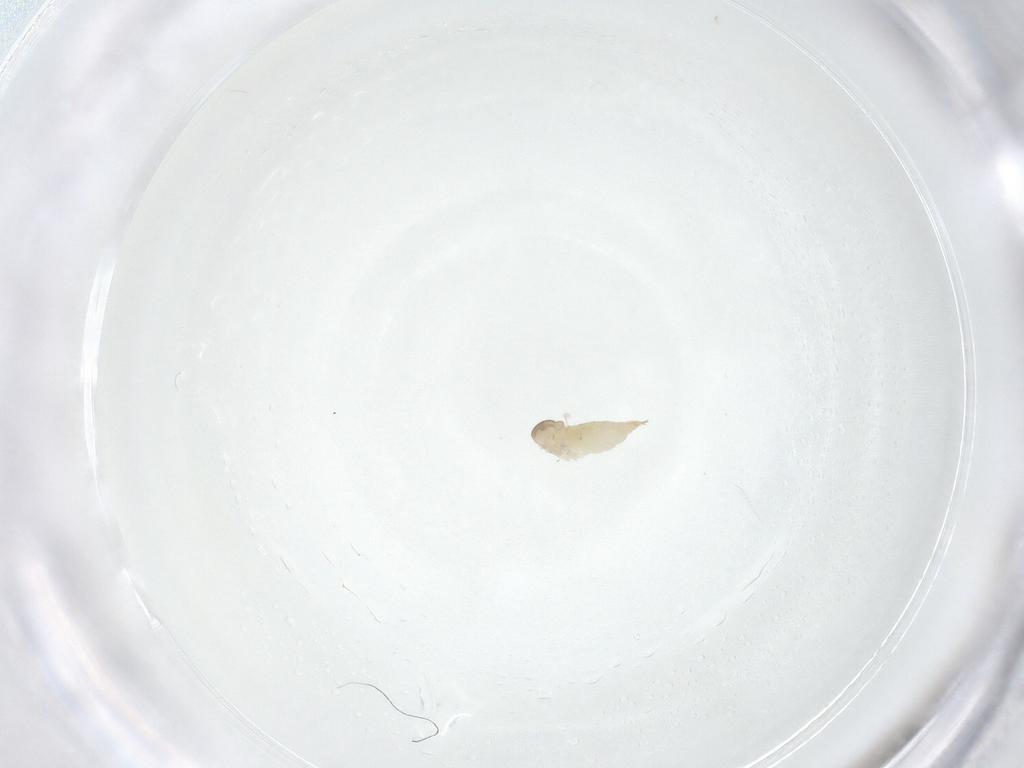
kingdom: Animalia
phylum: Arthropoda
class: Insecta
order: Diptera
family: Cecidomyiidae
